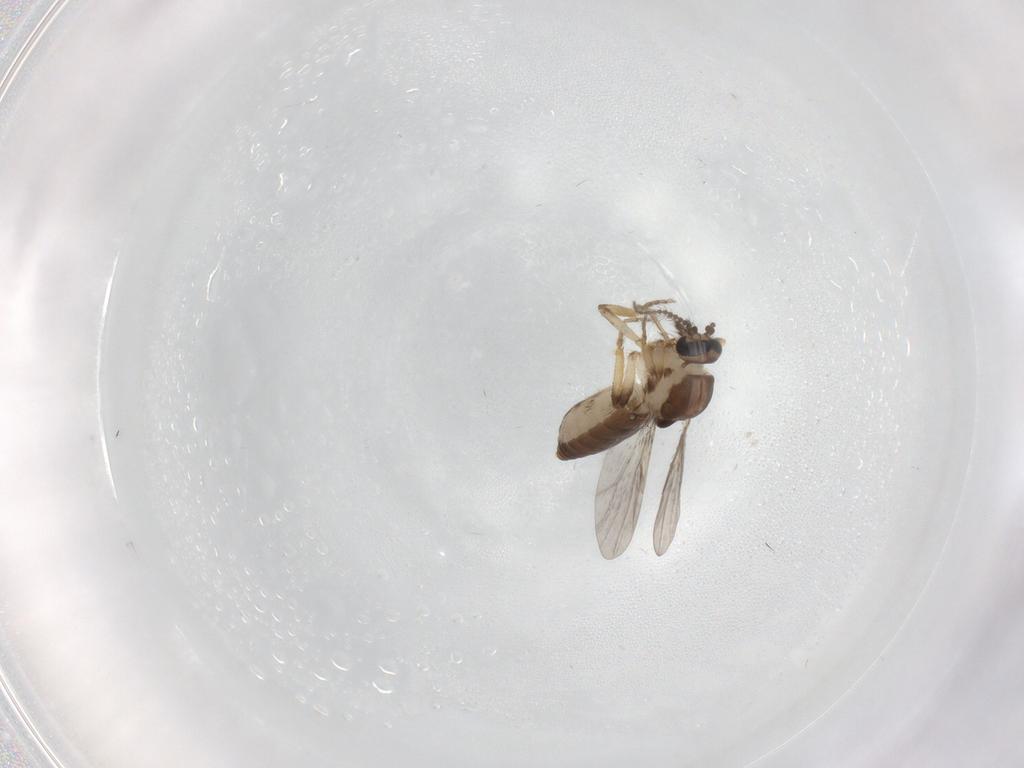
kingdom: Animalia
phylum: Arthropoda
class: Insecta
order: Diptera
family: Ceratopogonidae
